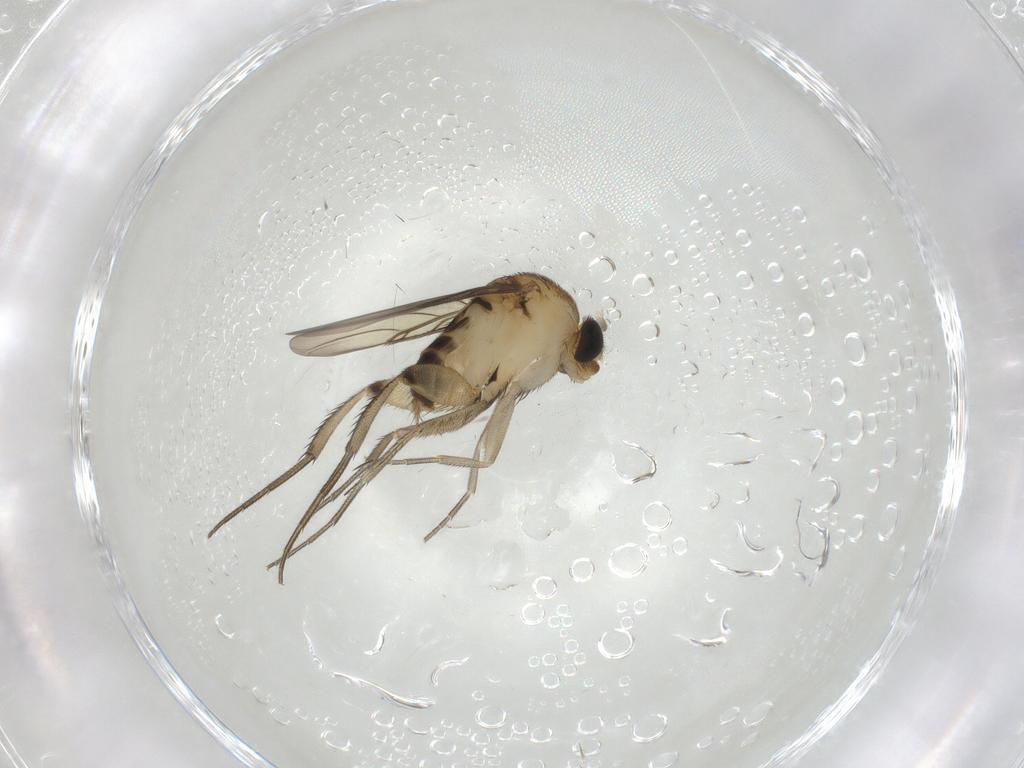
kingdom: Animalia
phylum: Arthropoda
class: Insecta
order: Diptera
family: Phoridae
